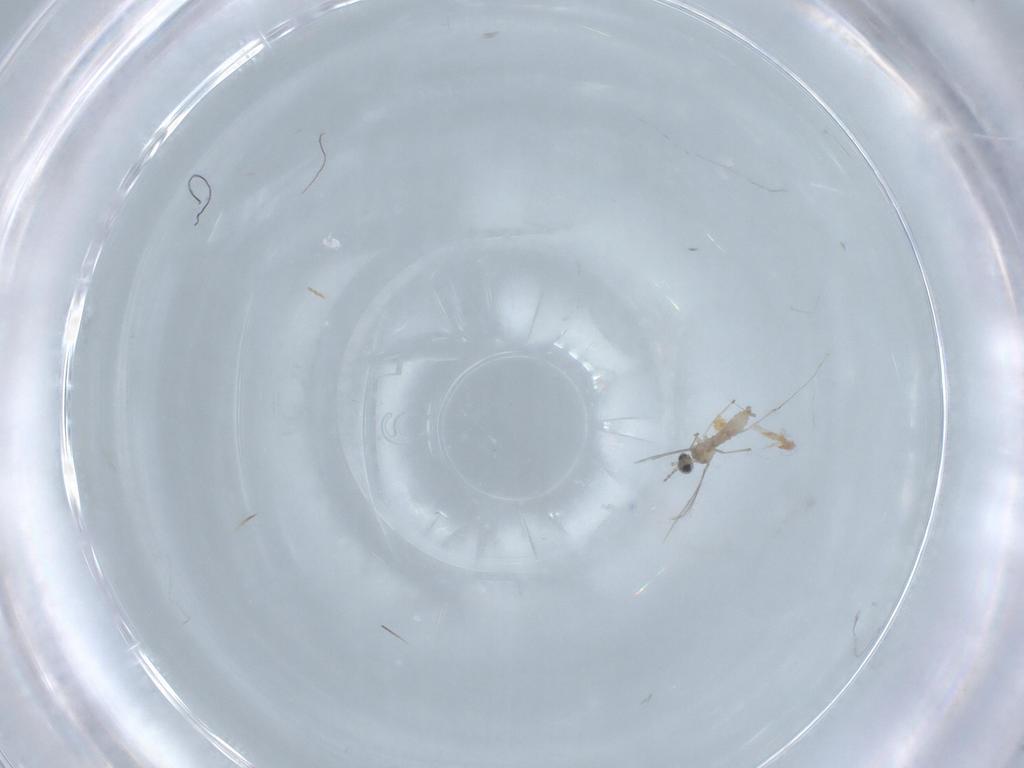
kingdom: Animalia
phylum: Arthropoda
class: Insecta
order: Diptera
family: Cecidomyiidae
